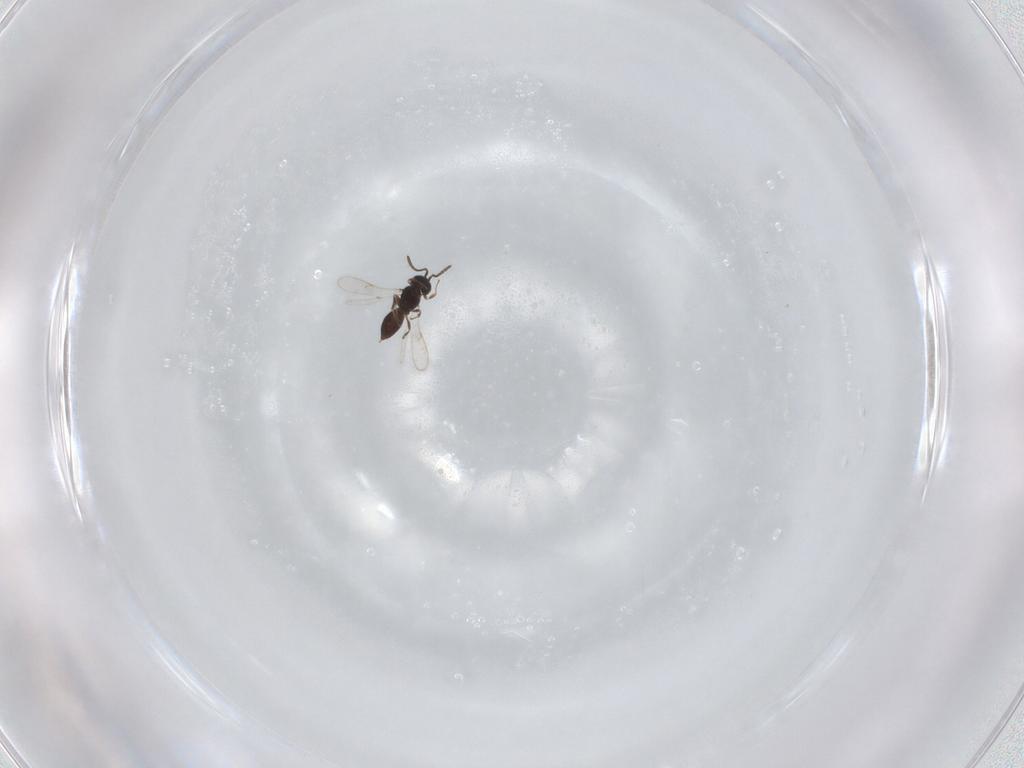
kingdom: Animalia
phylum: Arthropoda
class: Insecta
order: Hymenoptera
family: Scelionidae
